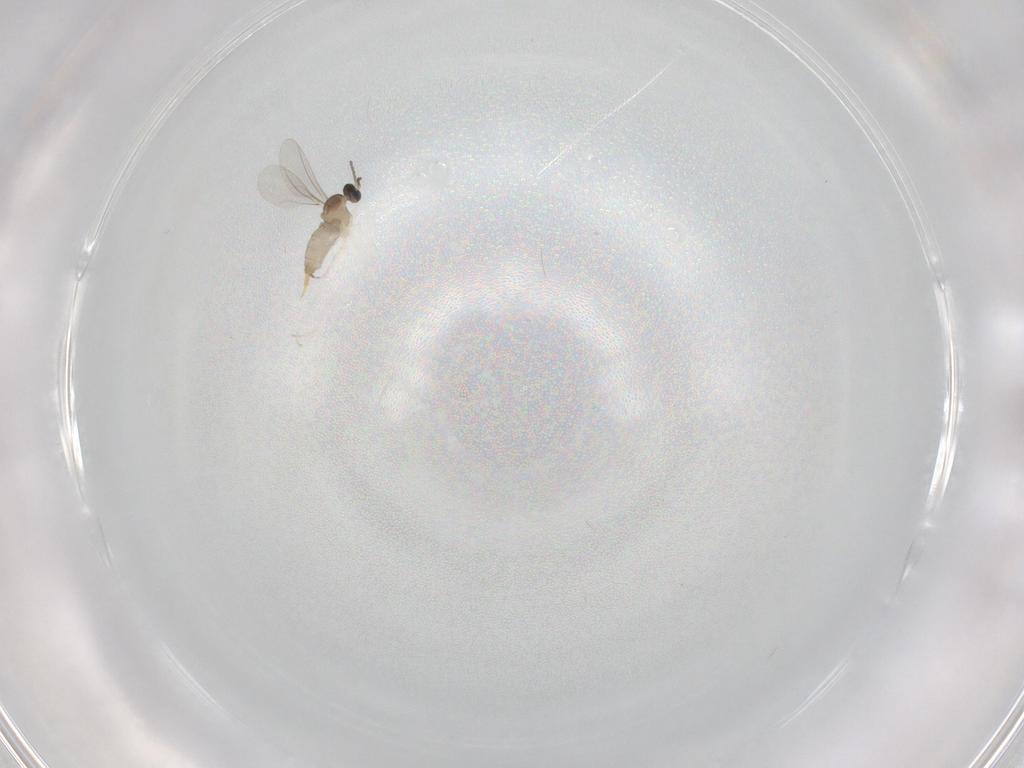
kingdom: Animalia
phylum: Arthropoda
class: Insecta
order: Diptera
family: Cecidomyiidae
